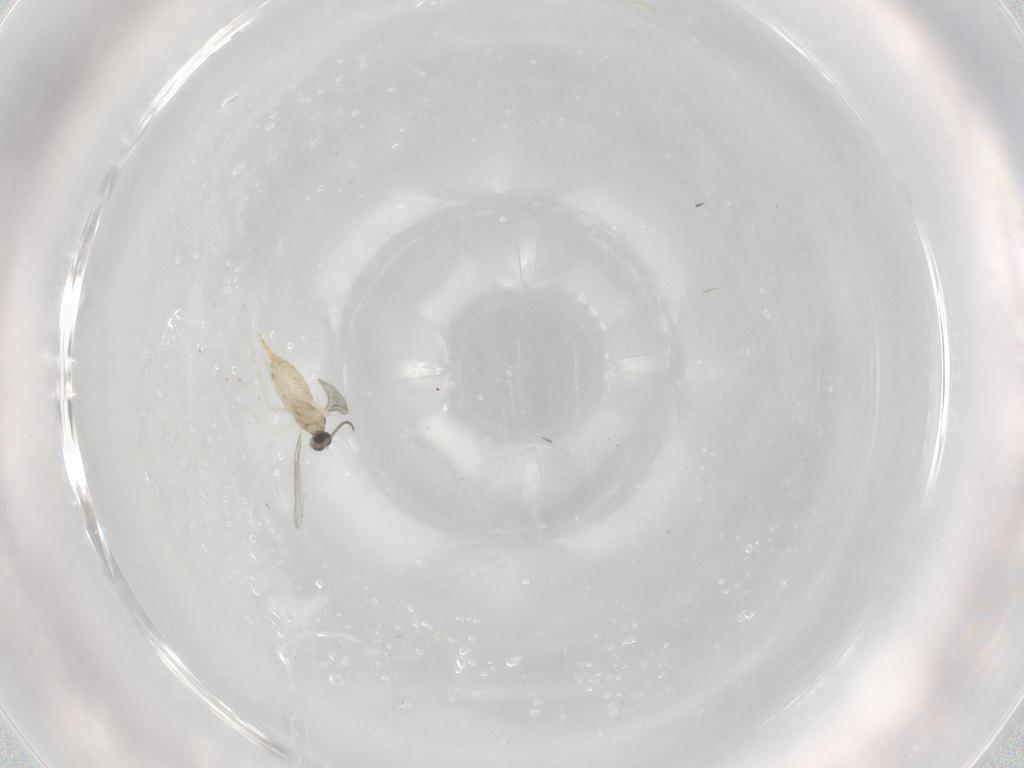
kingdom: Animalia
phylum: Arthropoda
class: Insecta
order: Diptera
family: Cecidomyiidae
